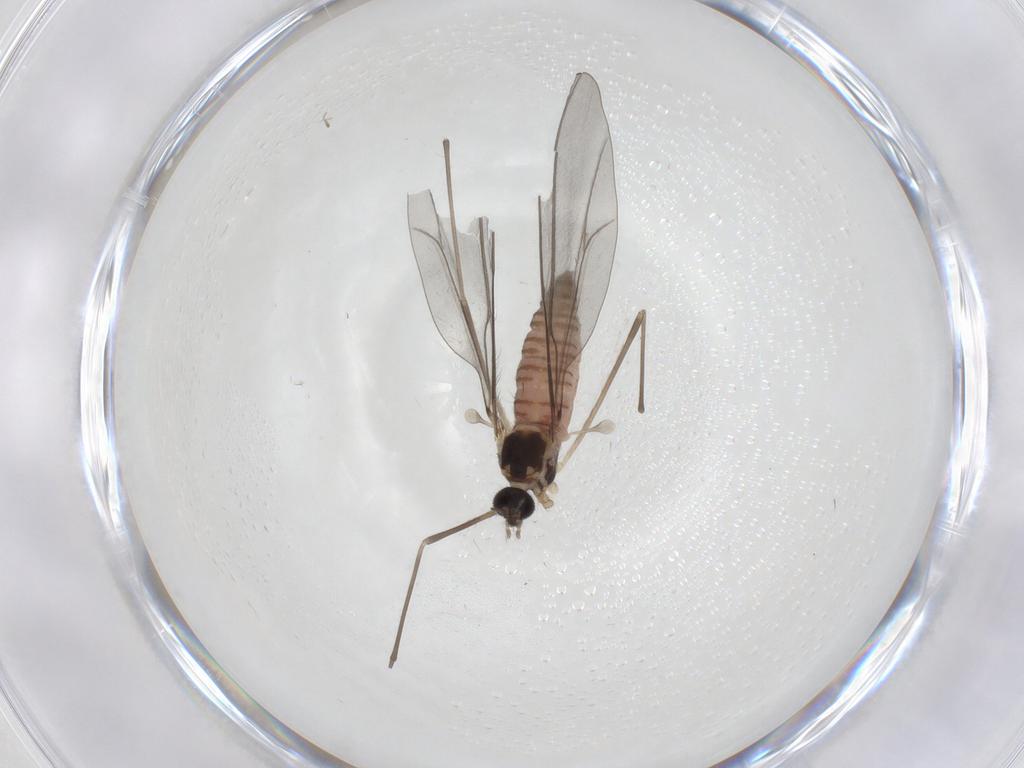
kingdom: Animalia
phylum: Arthropoda
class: Insecta
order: Diptera
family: Cecidomyiidae
